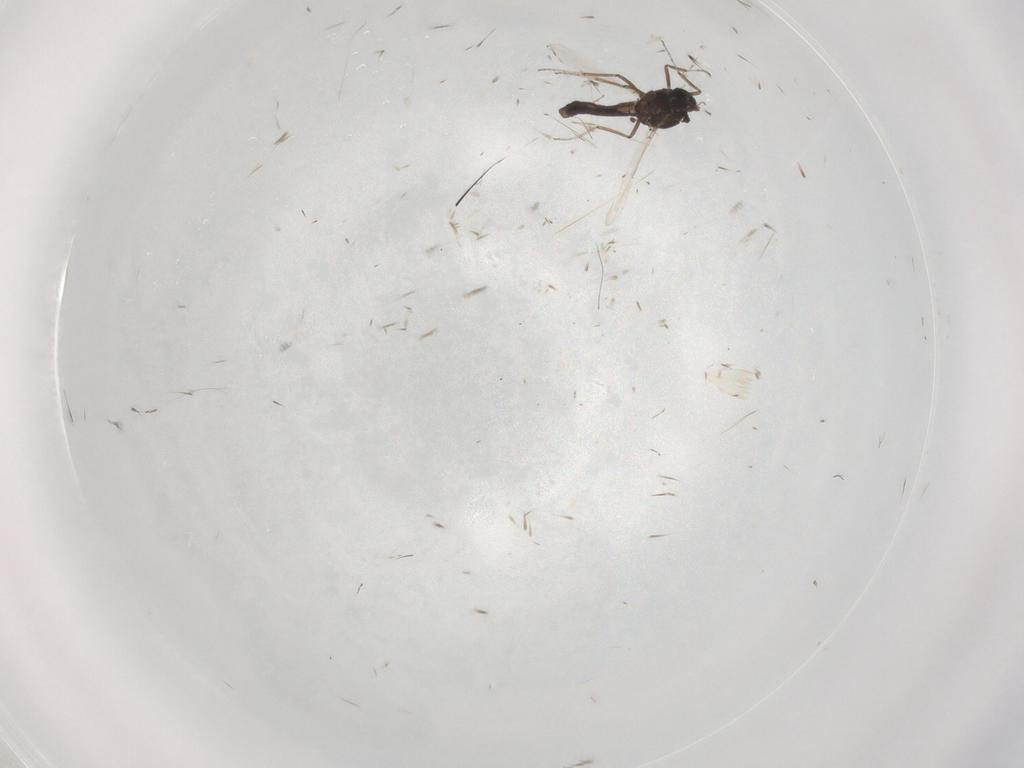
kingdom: Animalia
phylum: Arthropoda
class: Insecta
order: Diptera
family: Ceratopogonidae
